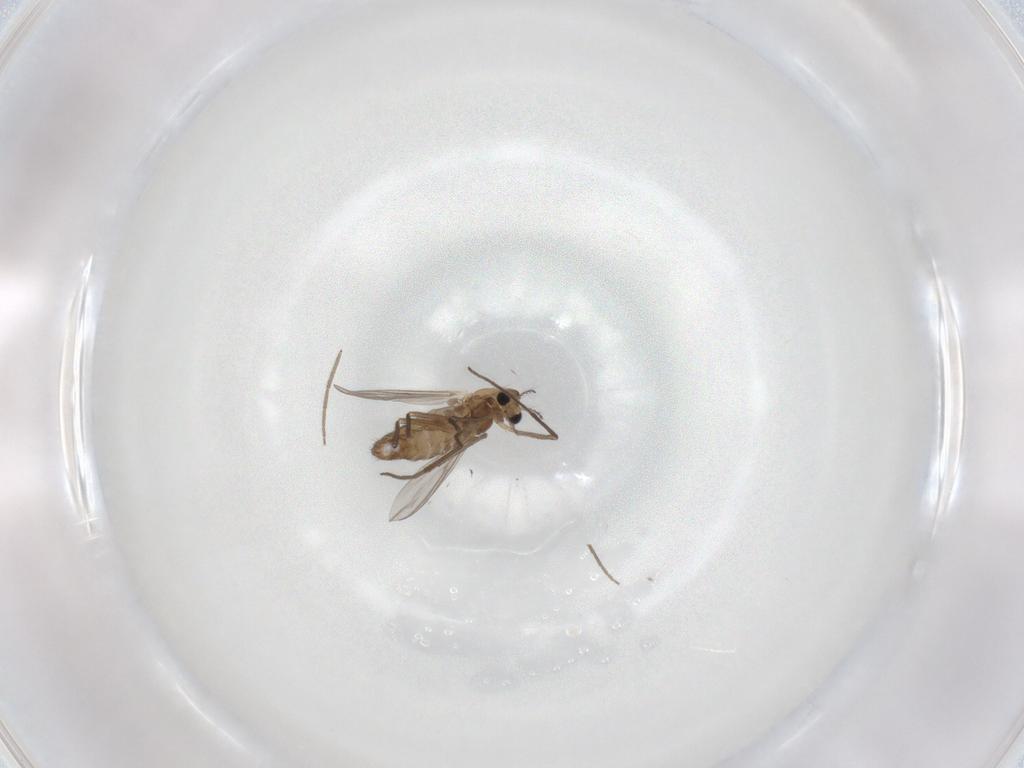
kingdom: Animalia
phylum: Arthropoda
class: Insecta
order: Diptera
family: Chironomidae
